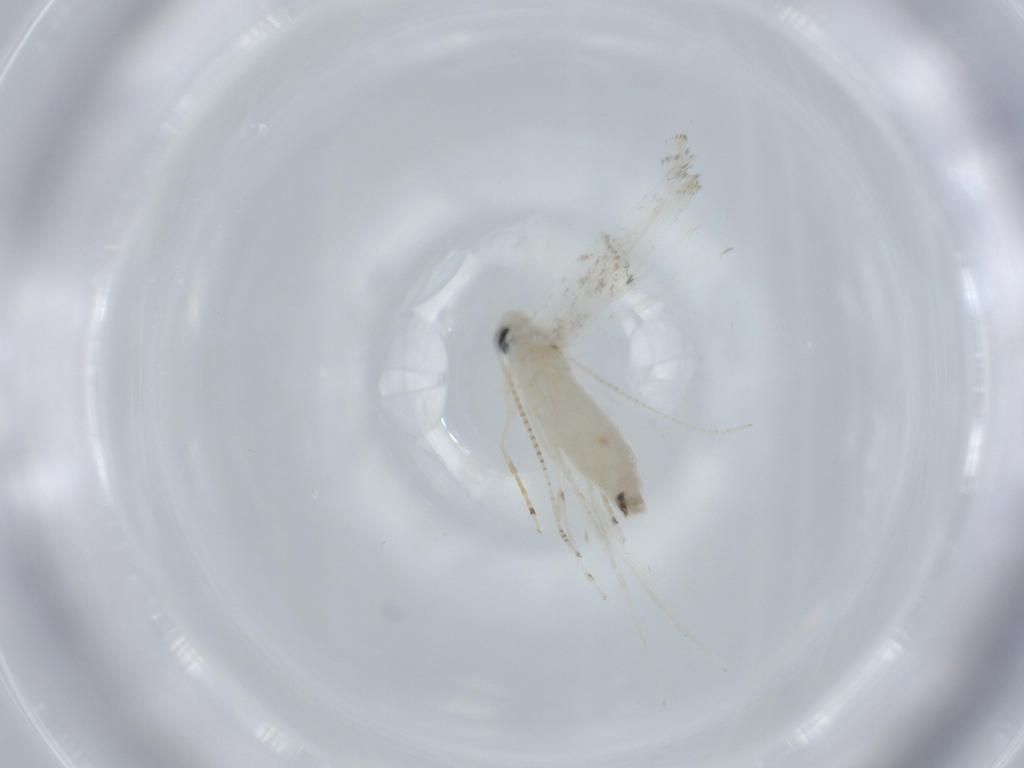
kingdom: Animalia
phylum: Arthropoda
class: Insecta
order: Lepidoptera
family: Gracillariidae
